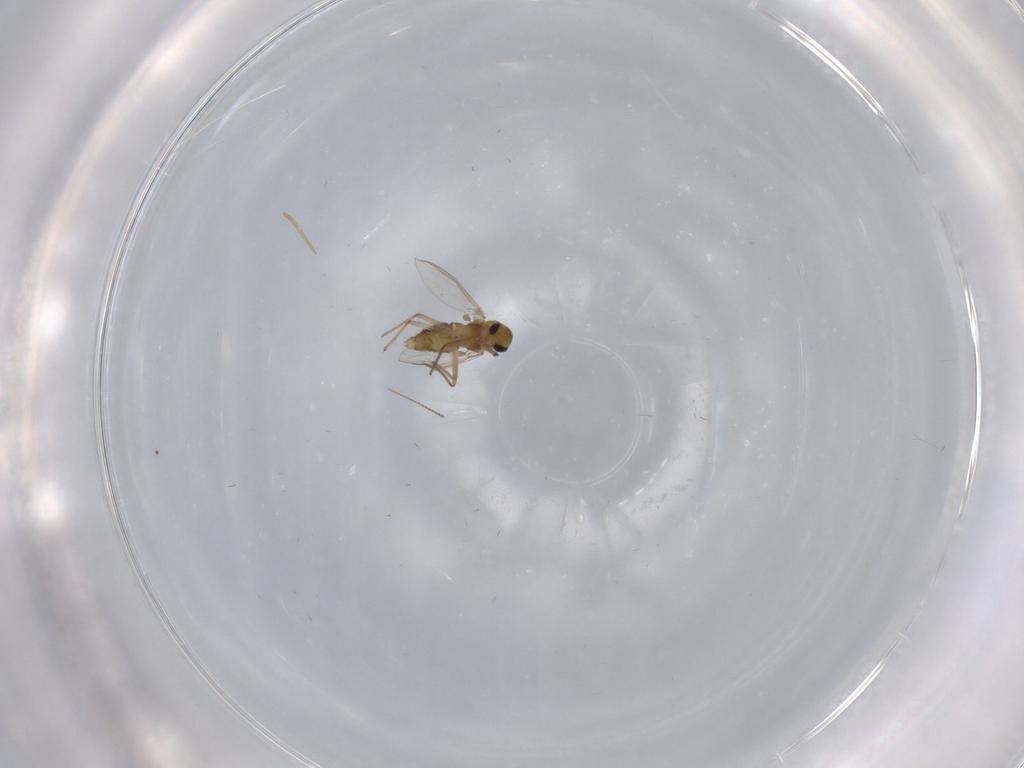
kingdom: Animalia
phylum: Arthropoda
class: Insecta
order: Diptera
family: Chironomidae
